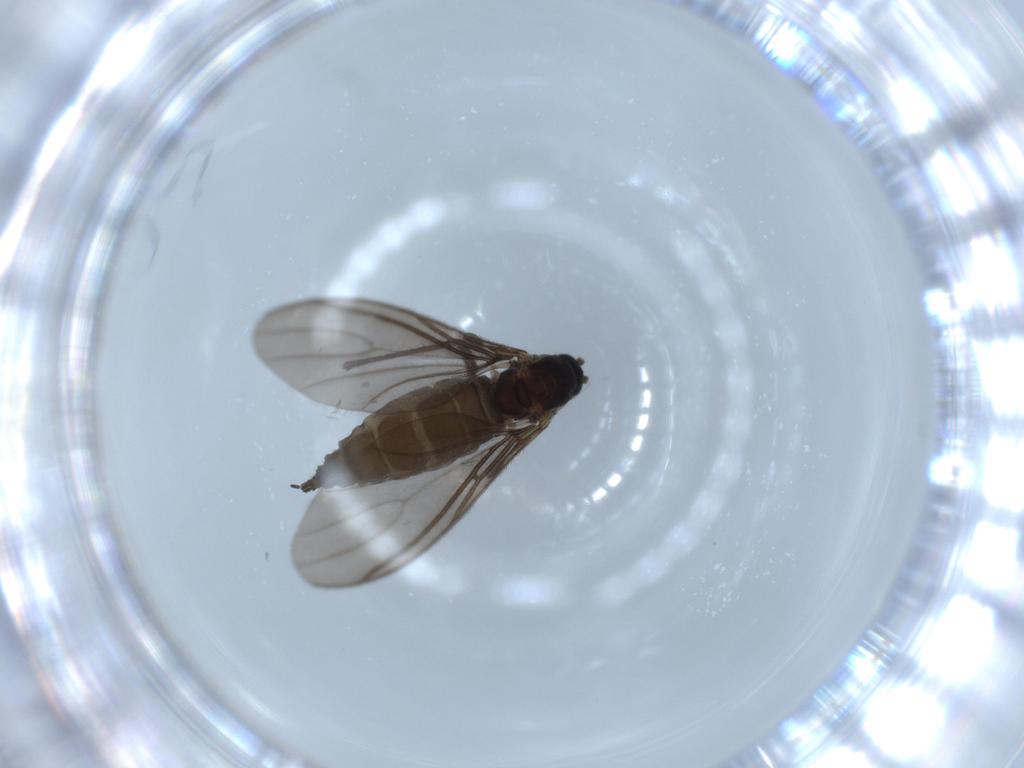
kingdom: Animalia
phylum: Arthropoda
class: Insecta
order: Diptera
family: Sciaridae
